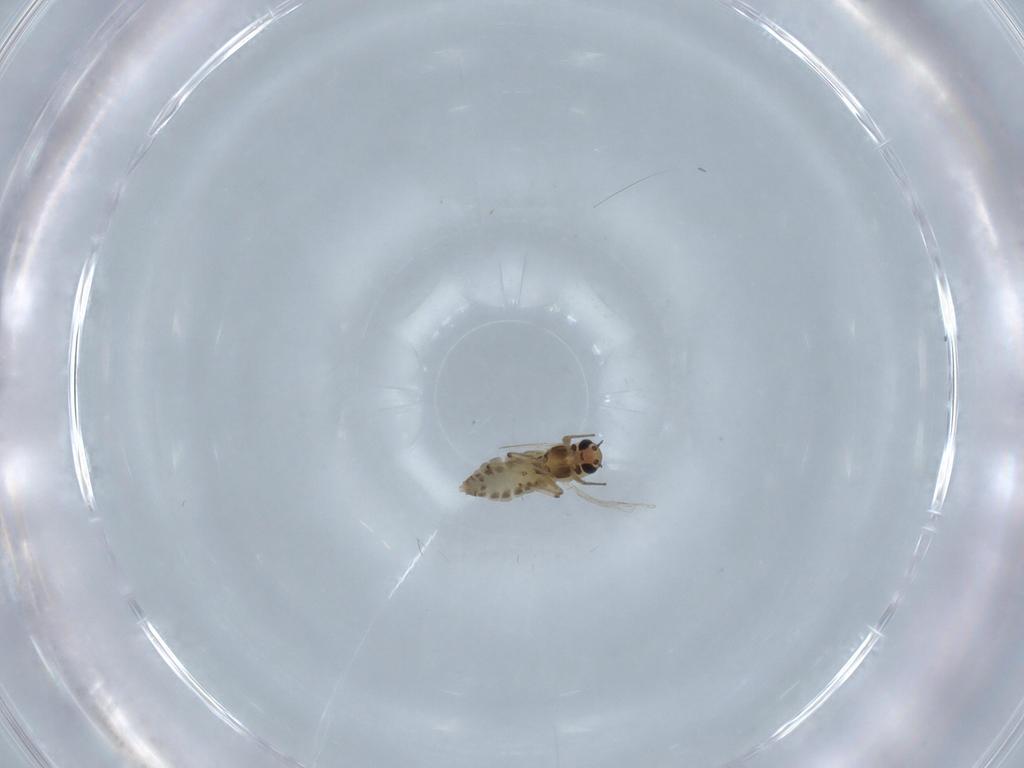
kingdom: Animalia
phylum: Arthropoda
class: Insecta
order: Diptera
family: Chironomidae
